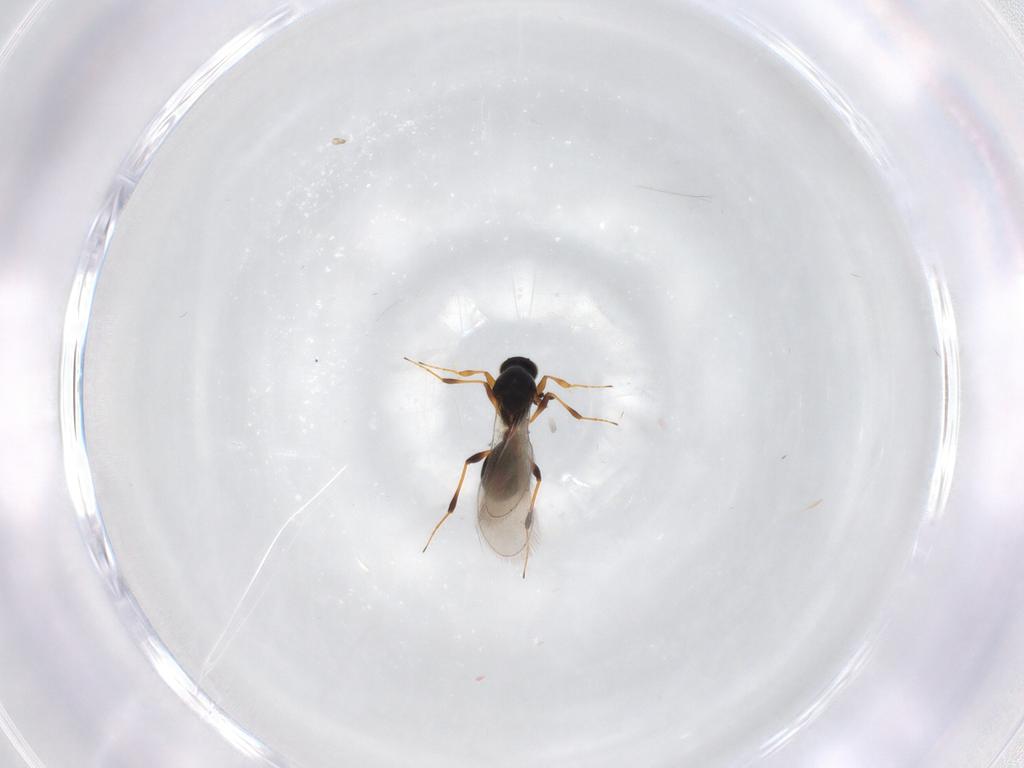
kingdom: Animalia
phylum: Arthropoda
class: Insecta
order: Hymenoptera
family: Platygastridae
